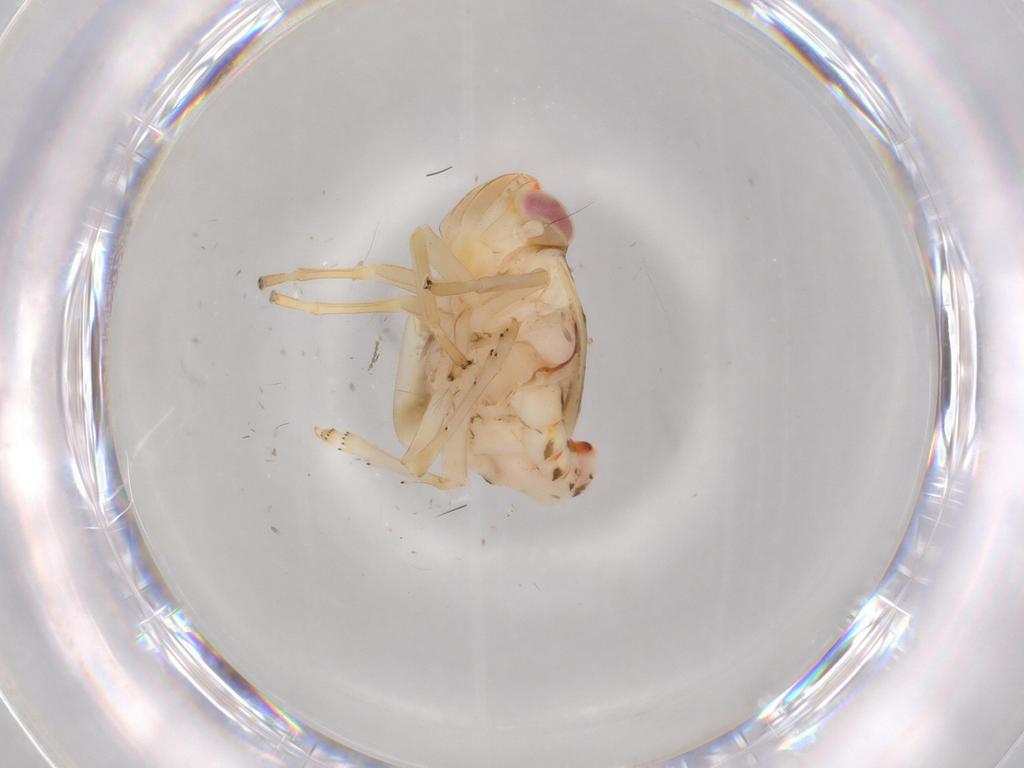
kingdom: Animalia
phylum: Arthropoda
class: Insecta
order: Hemiptera
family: Nogodinidae
